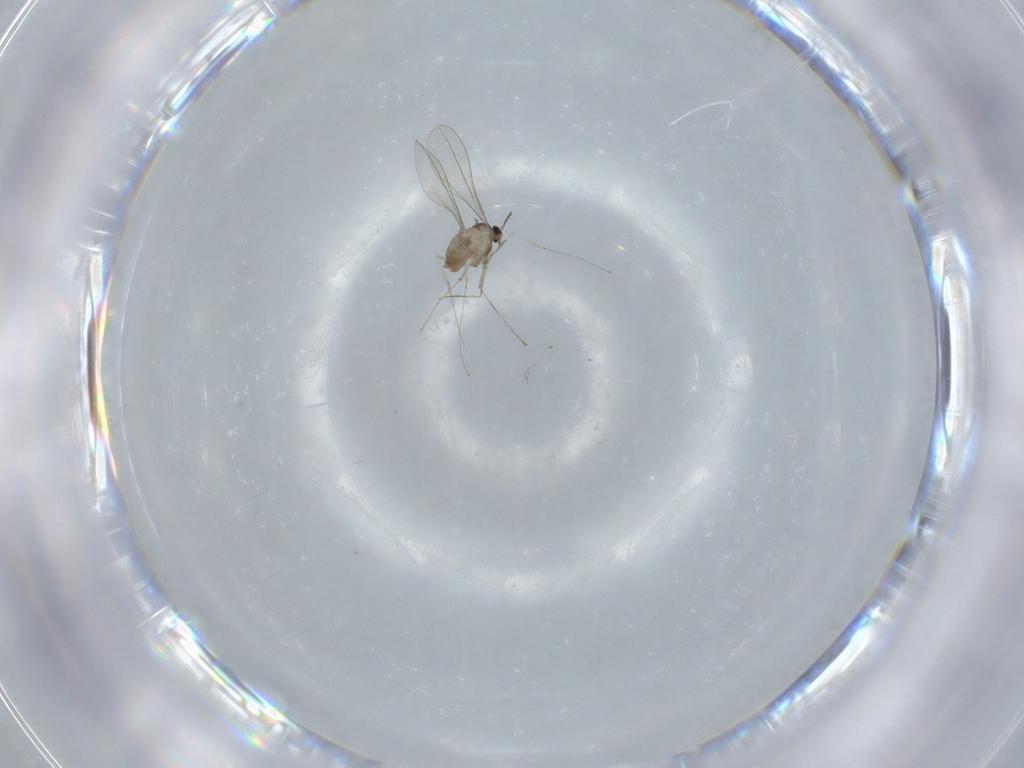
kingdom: Animalia
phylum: Arthropoda
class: Insecta
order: Diptera
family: Cecidomyiidae
